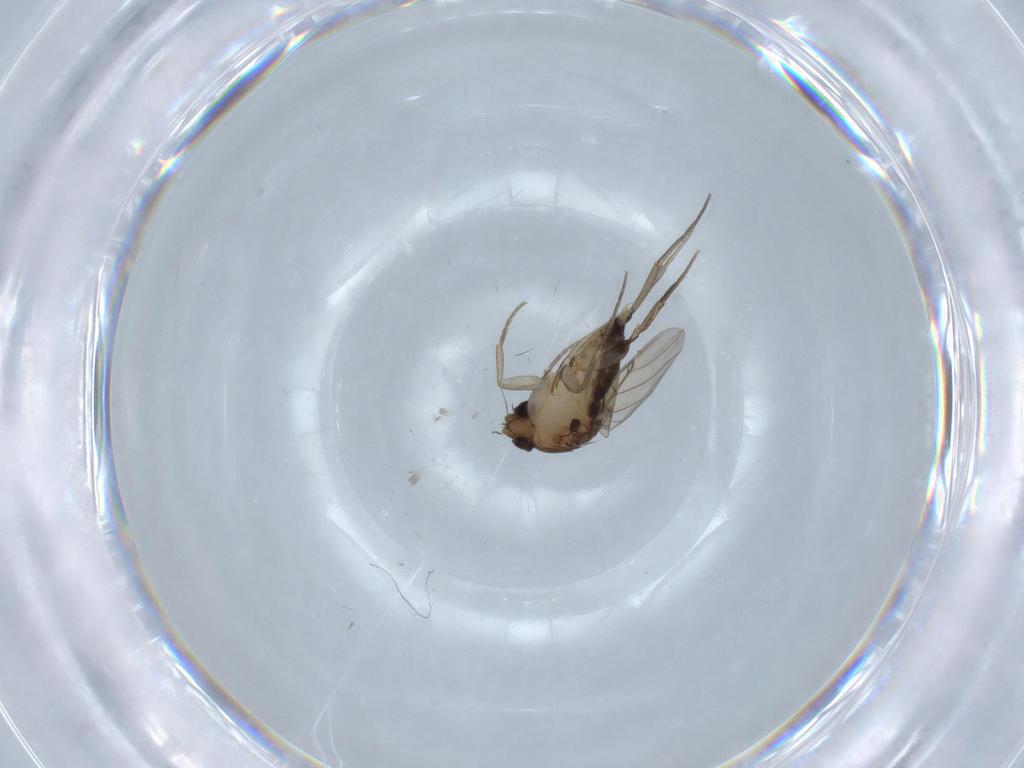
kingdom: Animalia
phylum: Arthropoda
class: Insecta
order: Diptera
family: Chironomidae
